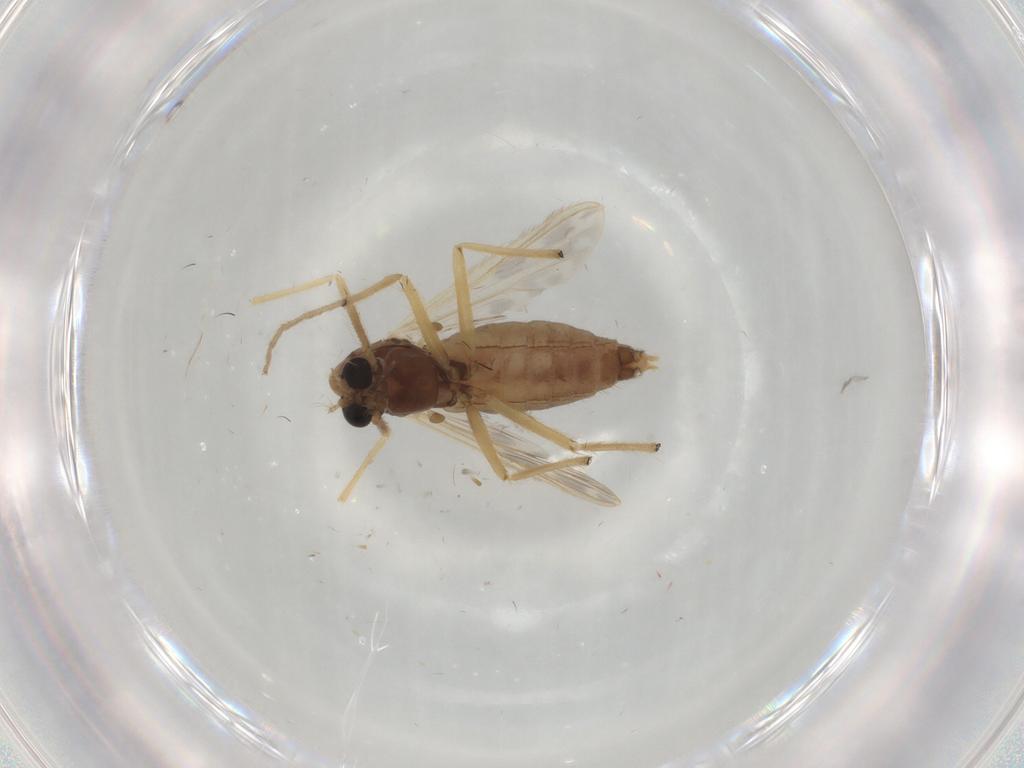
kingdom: Animalia
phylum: Arthropoda
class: Insecta
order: Diptera
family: Chironomidae
